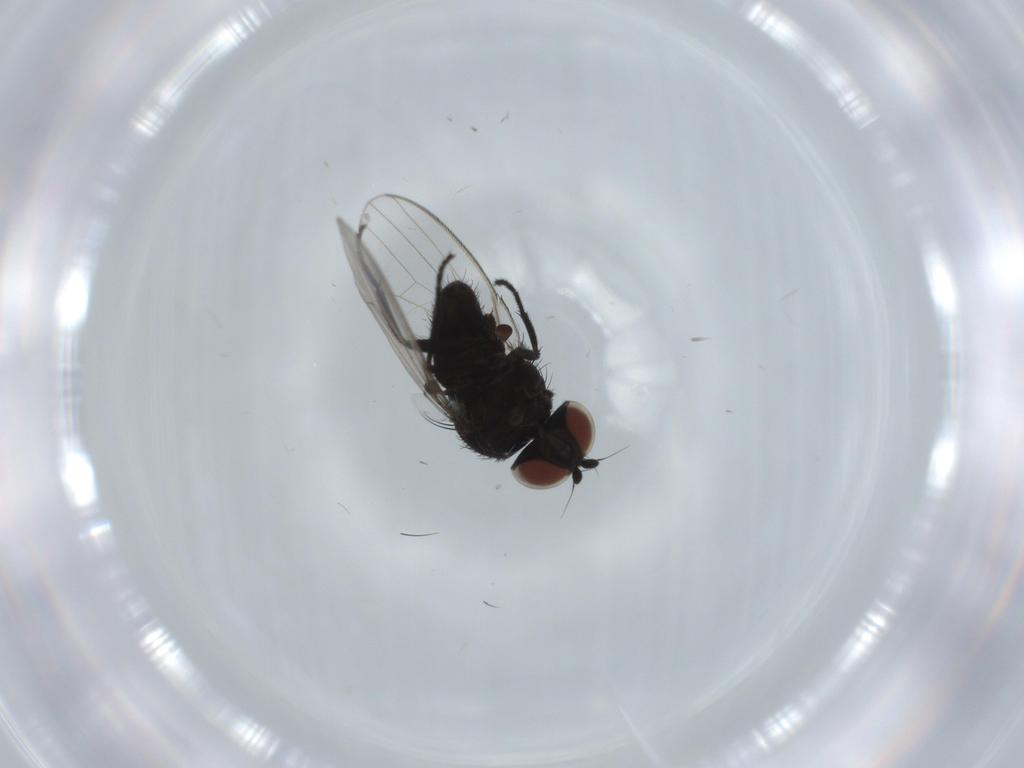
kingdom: Animalia
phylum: Arthropoda
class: Insecta
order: Diptera
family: Milichiidae
